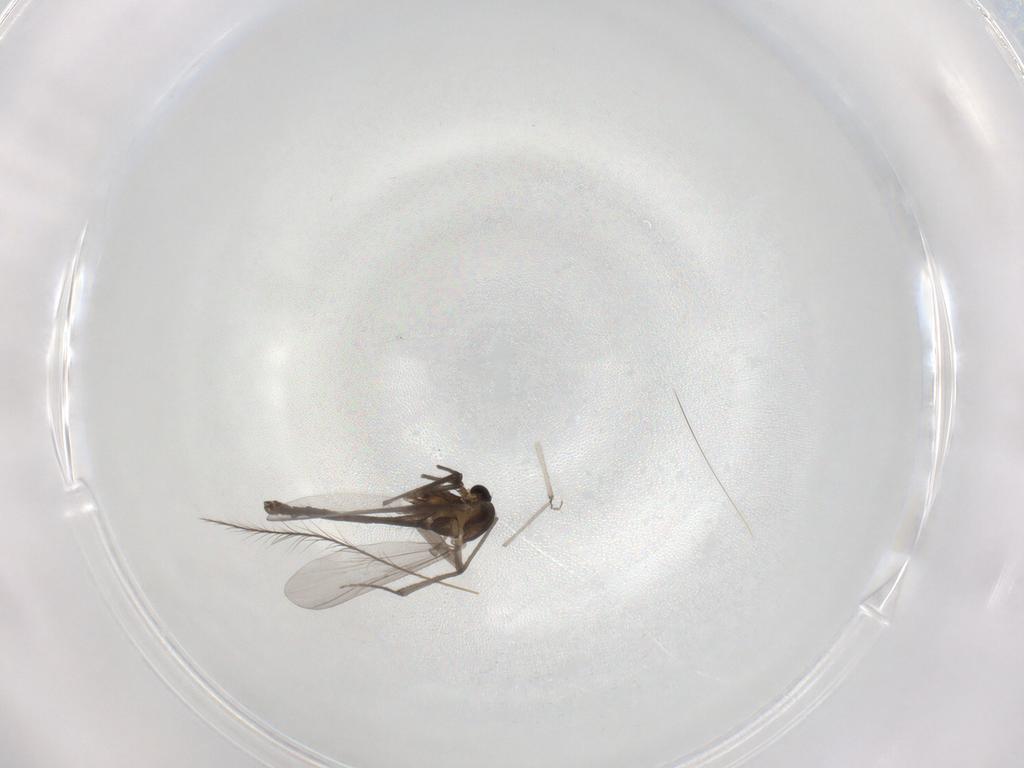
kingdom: Animalia
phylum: Arthropoda
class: Insecta
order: Diptera
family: Chironomidae
